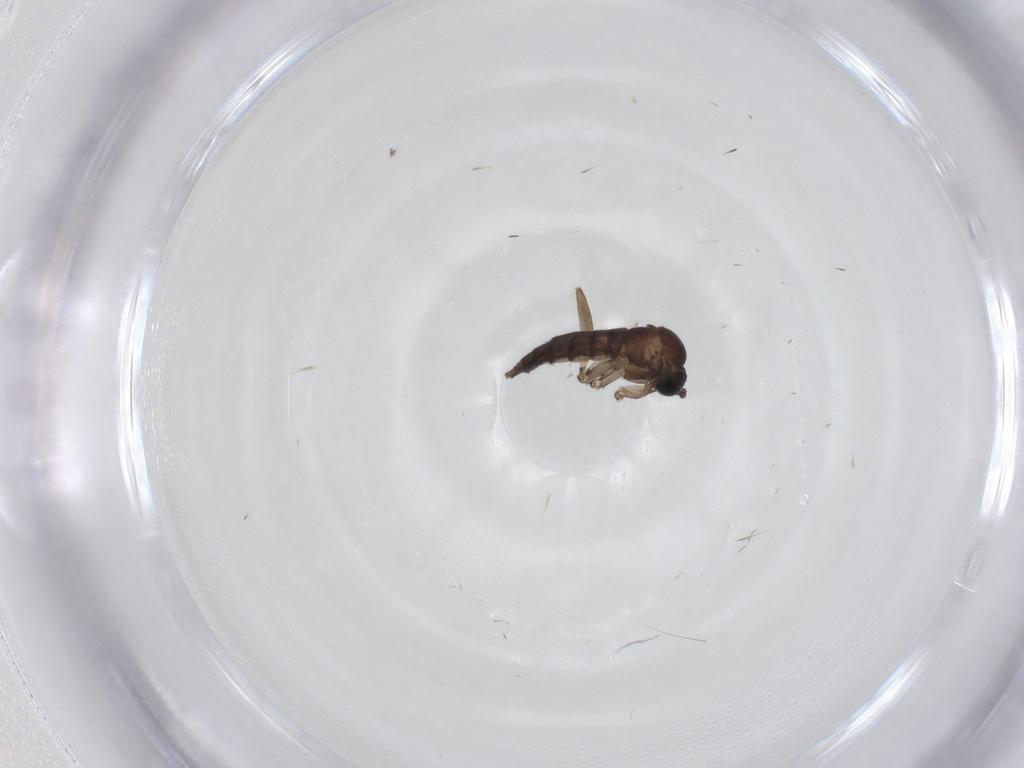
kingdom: Animalia
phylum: Arthropoda
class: Insecta
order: Diptera
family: Sciaridae
